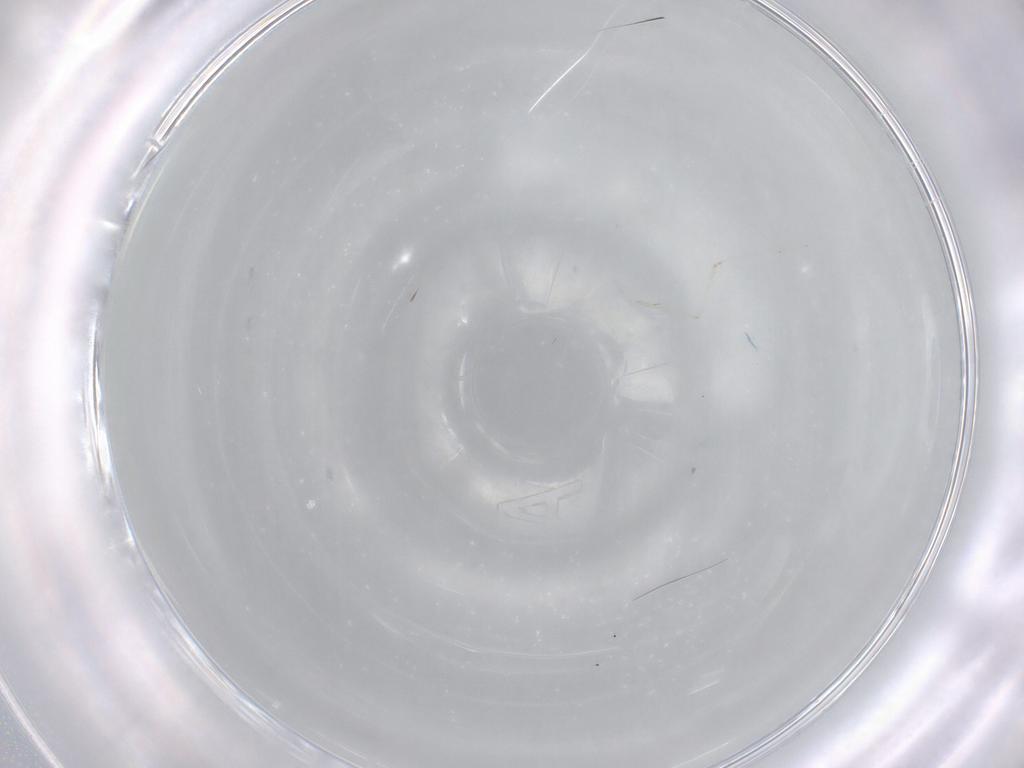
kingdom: Animalia
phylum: Arthropoda
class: Insecta
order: Diptera
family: Cecidomyiidae
